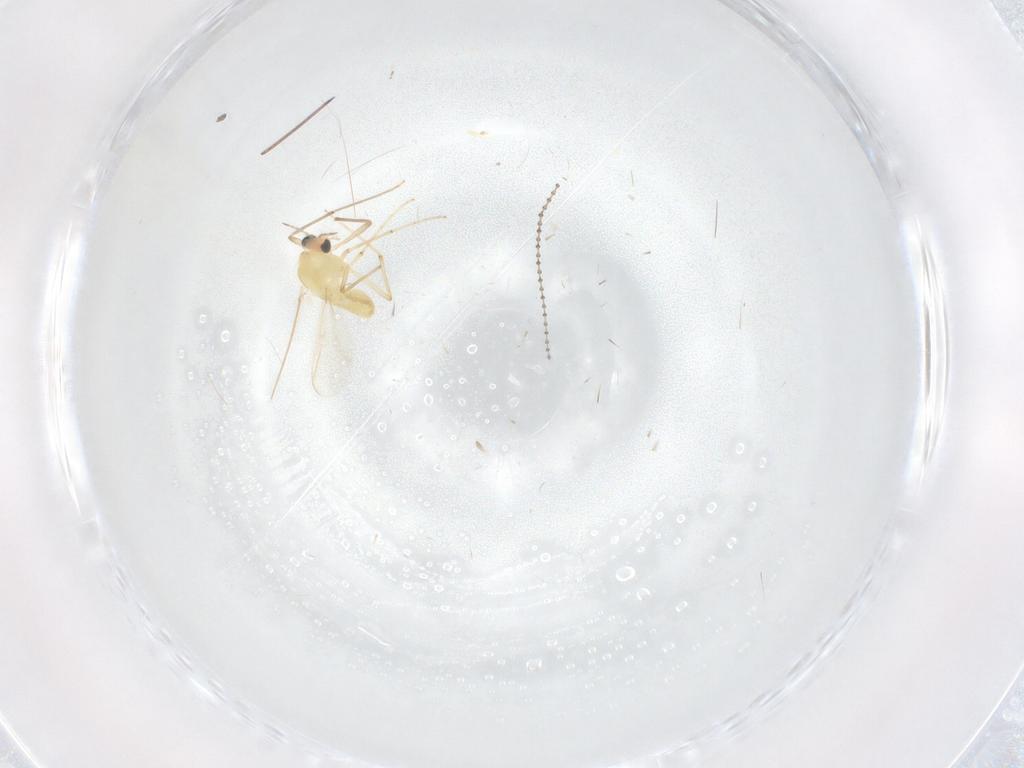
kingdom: Animalia
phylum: Arthropoda
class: Insecta
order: Diptera
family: Chironomidae
